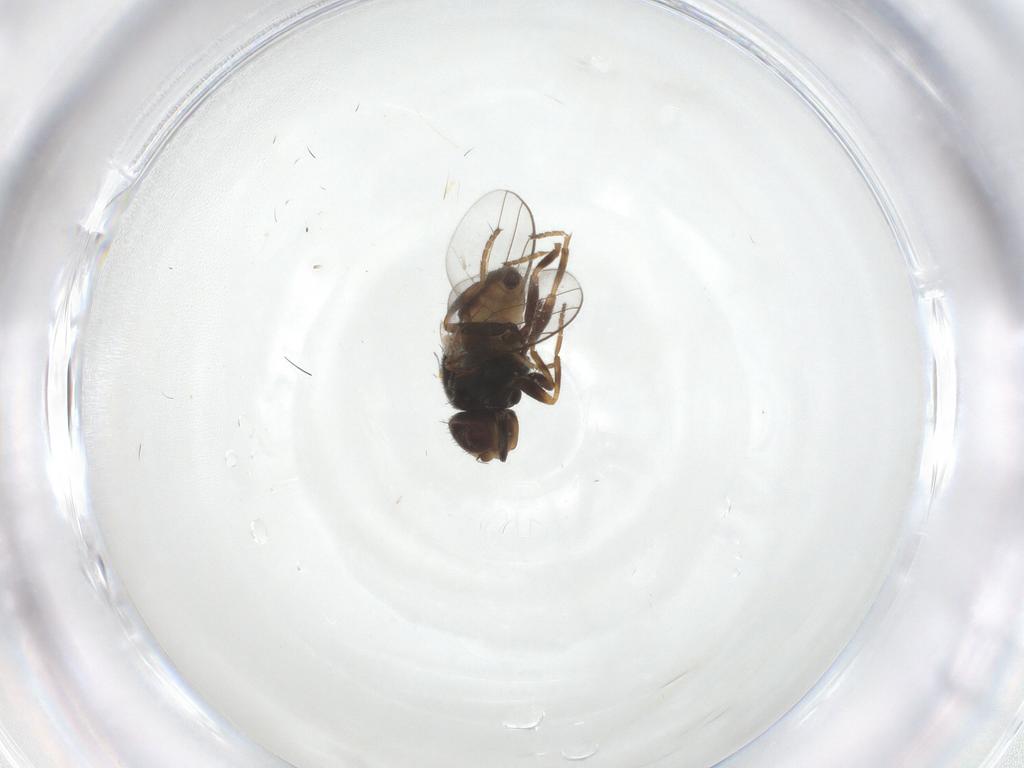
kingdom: Animalia
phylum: Arthropoda
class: Insecta
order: Diptera
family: Chloropidae
